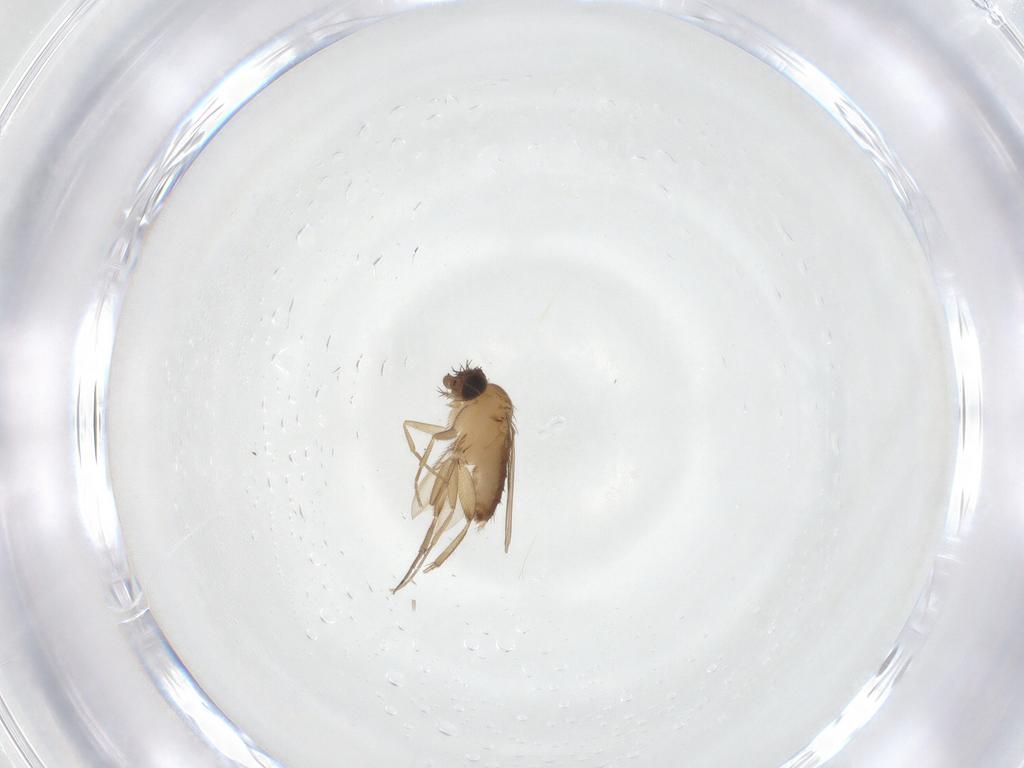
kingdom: Animalia
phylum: Arthropoda
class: Insecta
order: Diptera
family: Phoridae
